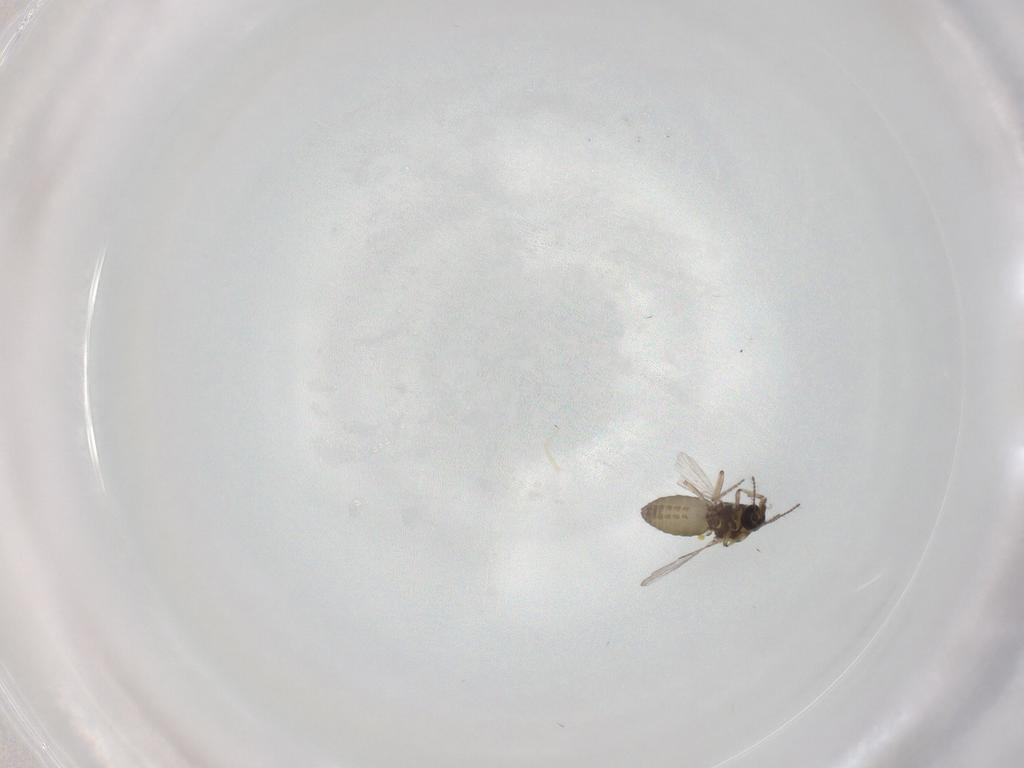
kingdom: Animalia
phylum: Arthropoda
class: Insecta
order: Diptera
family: Ceratopogonidae
